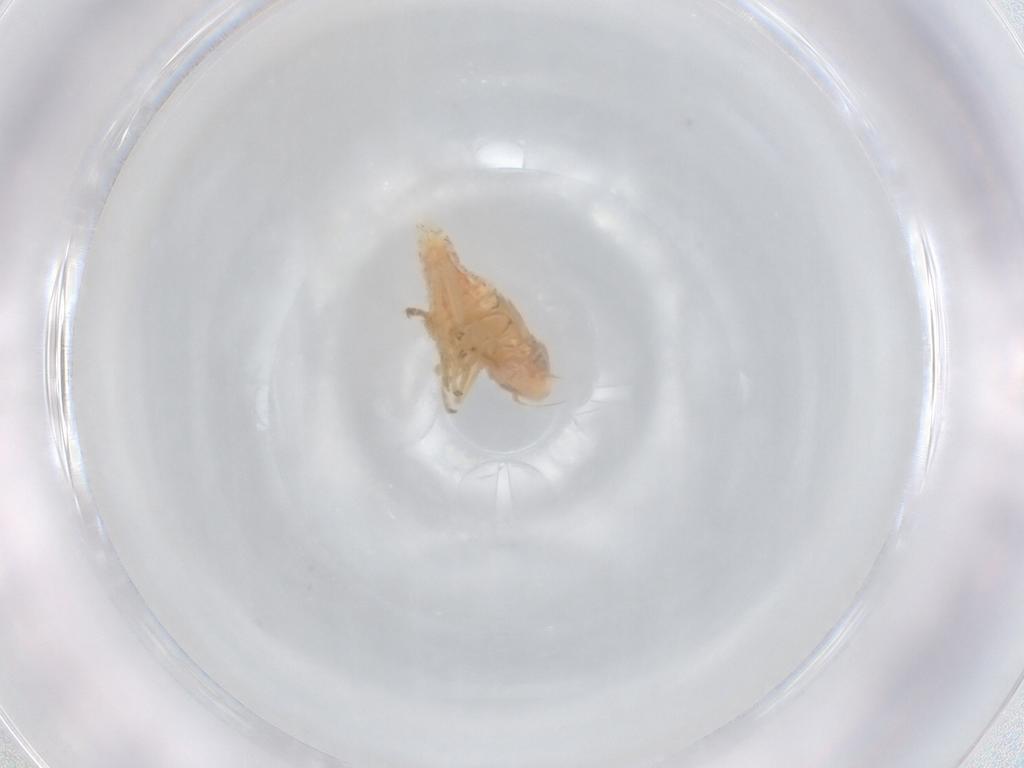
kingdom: Animalia
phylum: Arthropoda
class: Insecta
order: Hemiptera
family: Cicadellidae
